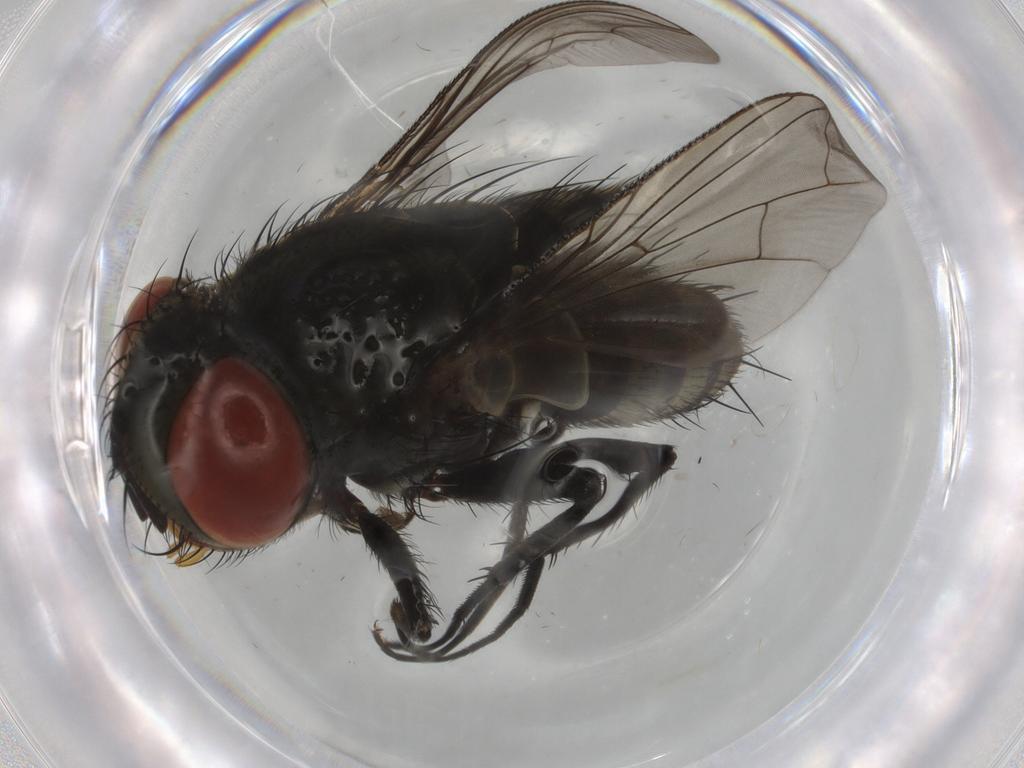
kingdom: Animalia
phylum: Arthropoda
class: Insecta
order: Diptera
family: Sarcophagidae
